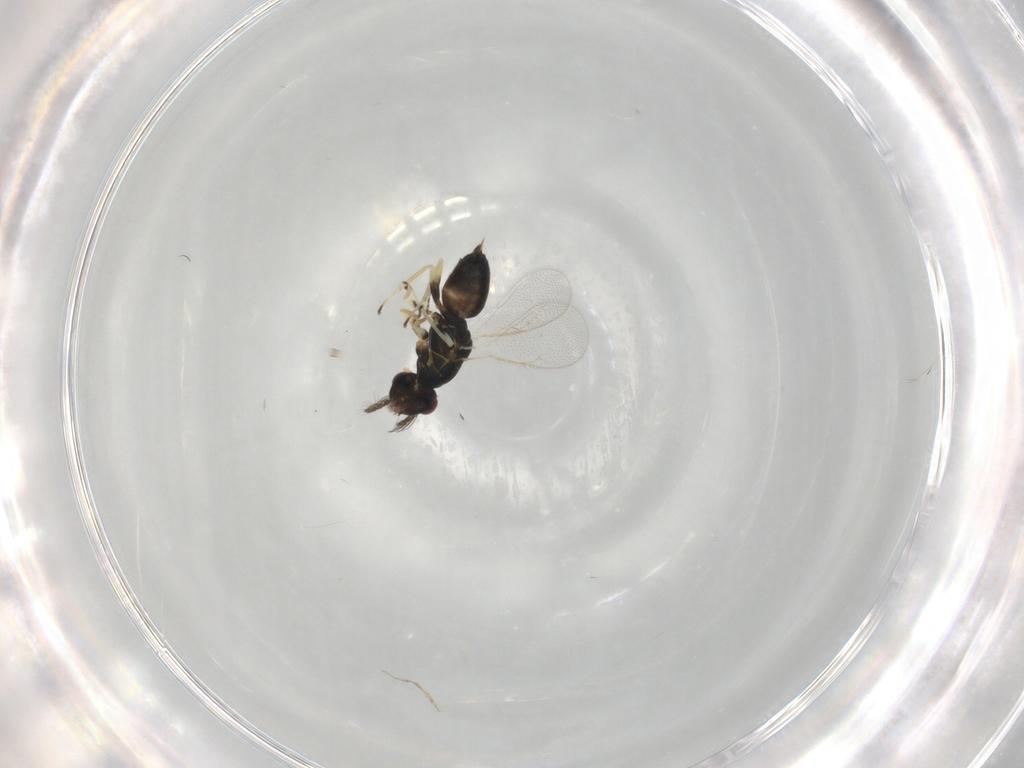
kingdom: Animalia
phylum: Arthropoda
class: Insecta
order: Hymenoptera
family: Eulophidae
